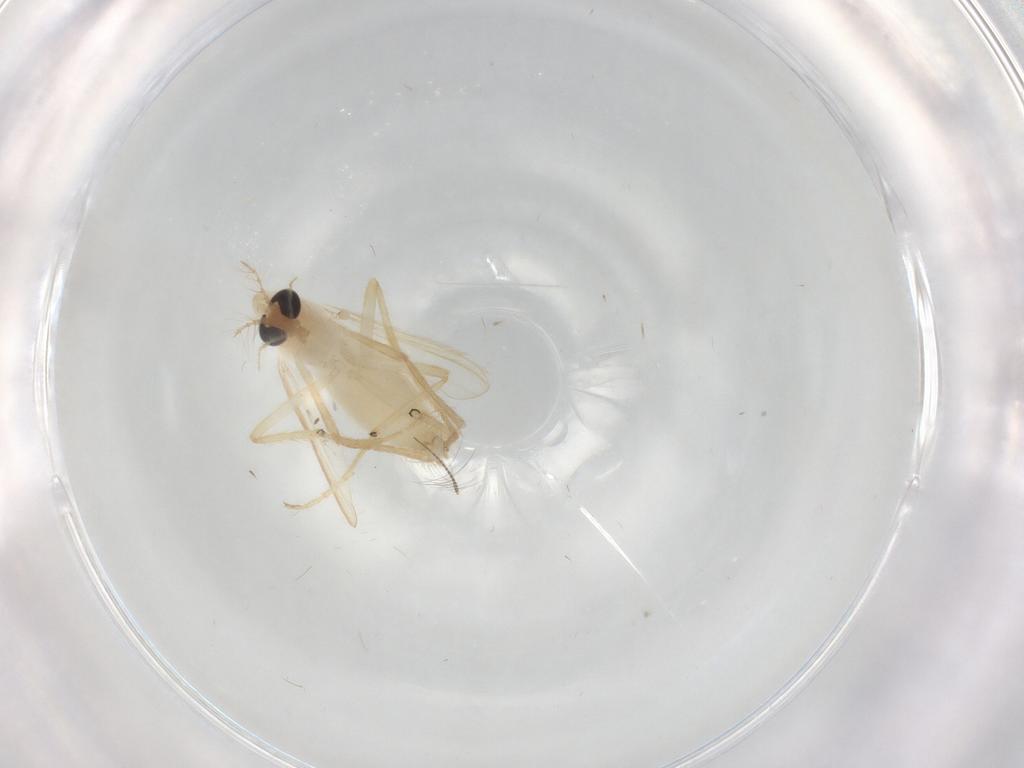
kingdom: Animalia
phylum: Arthropoda
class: Insecta
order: Diptera
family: Chironomidae
